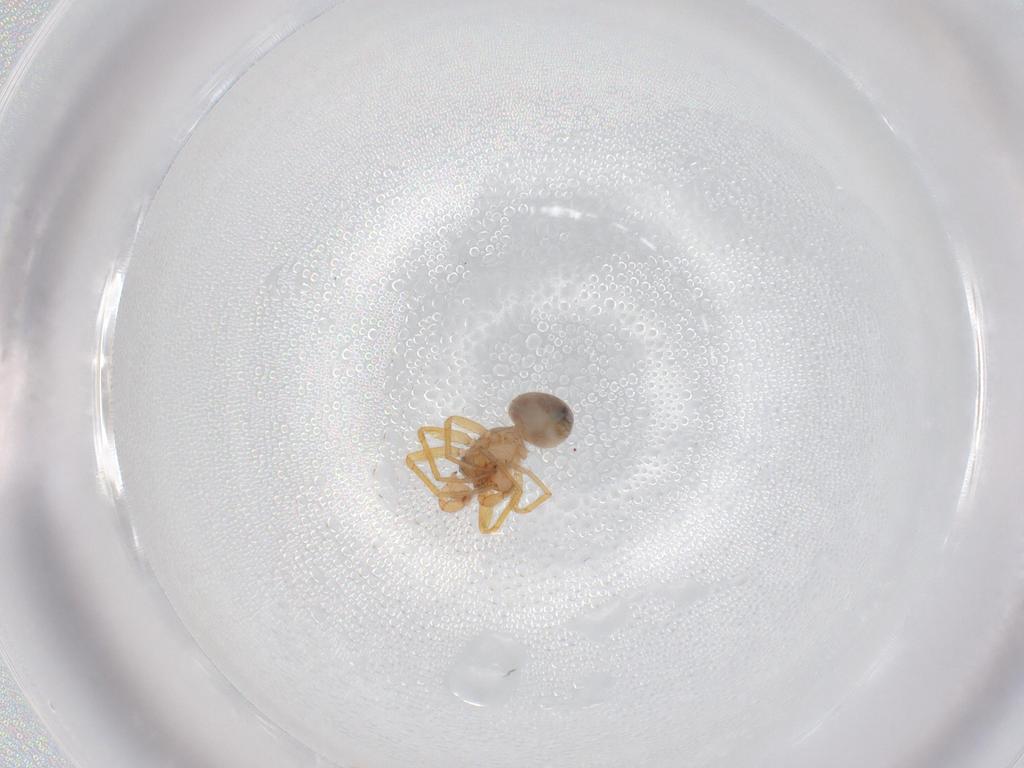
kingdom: Animalia
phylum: Arthropoda
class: Arachnida
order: Araneae
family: Oonopidae
